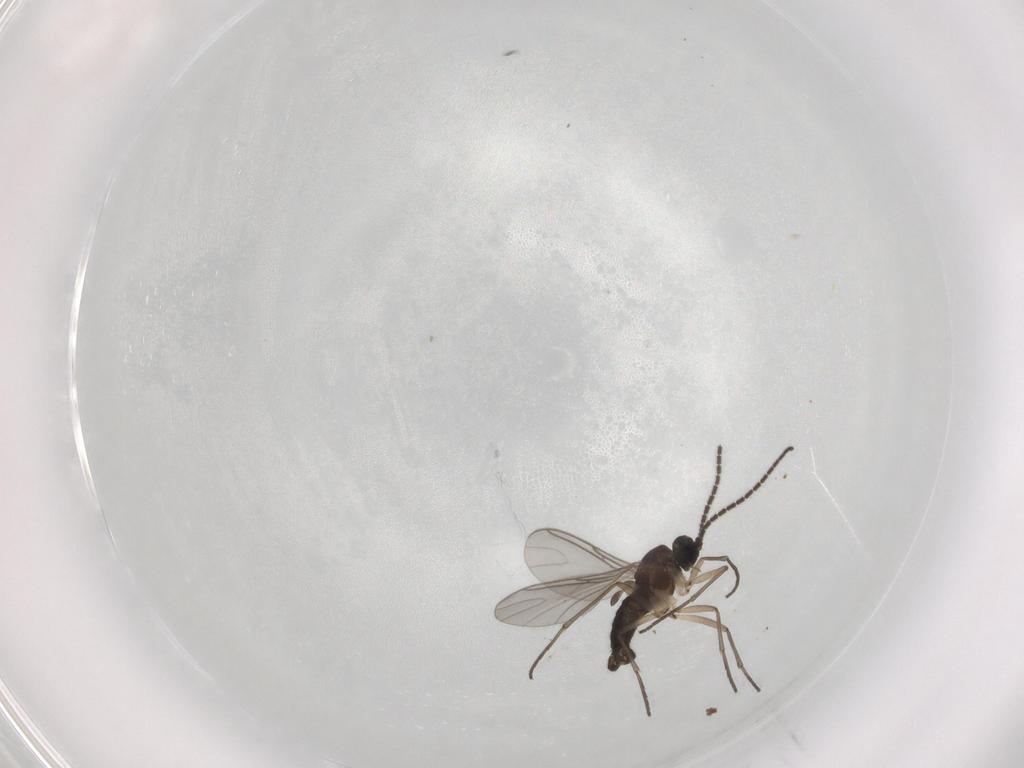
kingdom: Animalia
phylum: Arthropoda
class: Insecta
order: Diptera
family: Sciaridae
